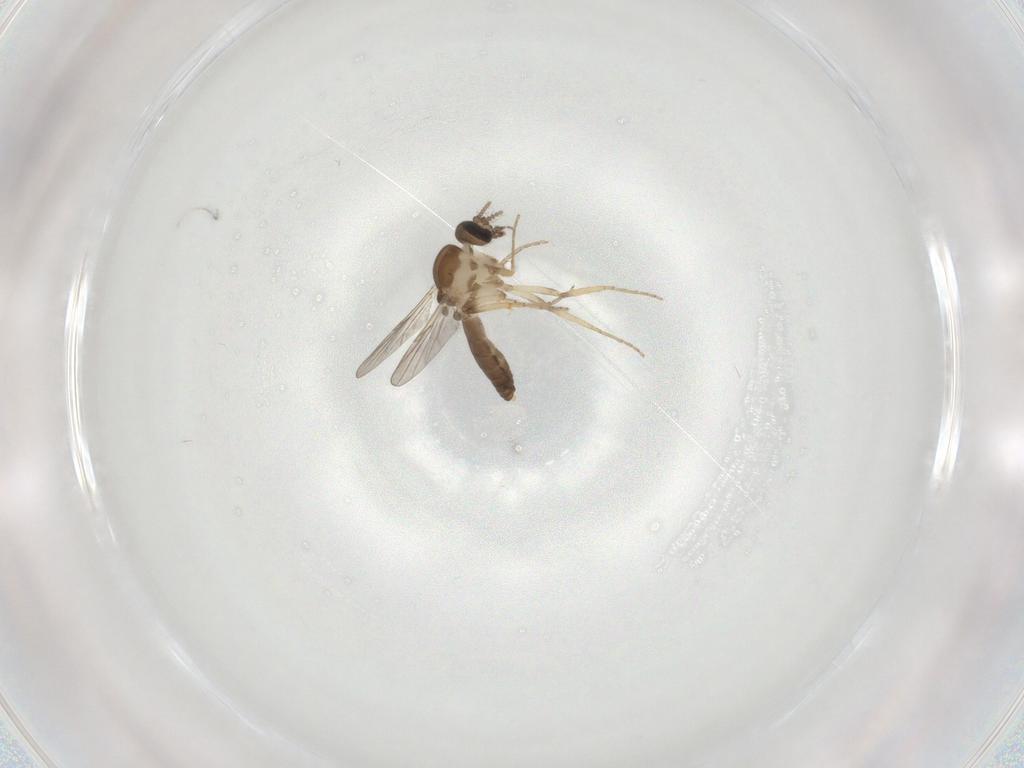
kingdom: Animalia
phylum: Arthropoda
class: Insecta
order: Diptera
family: Ceratopogonidae
